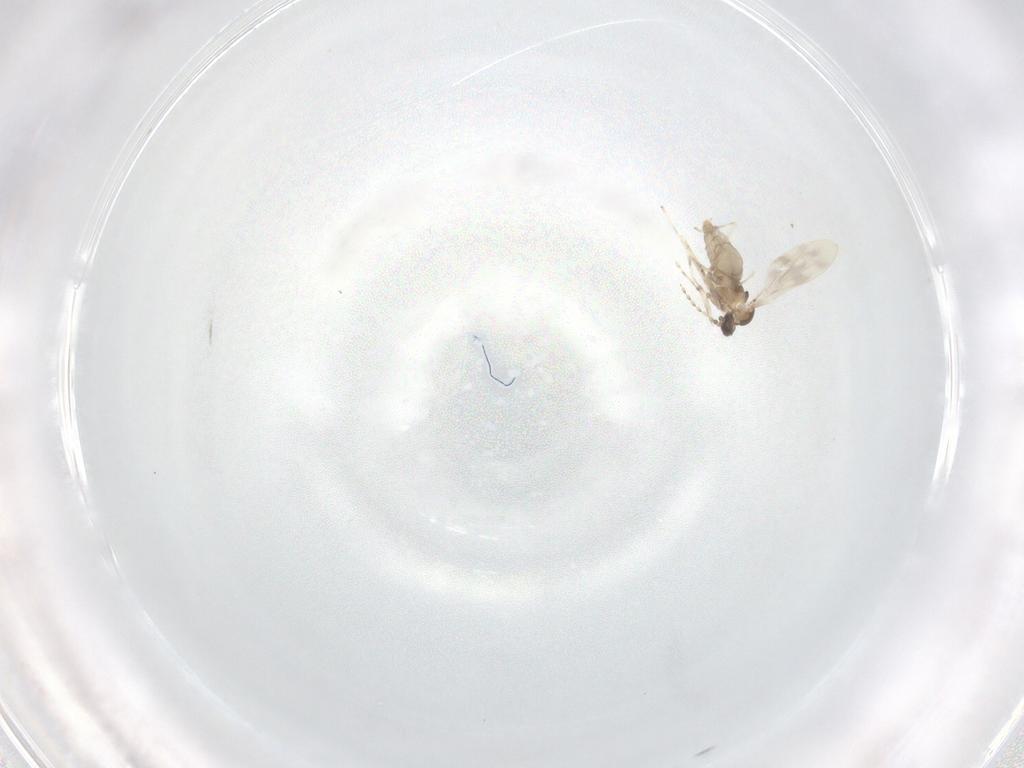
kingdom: Animalia
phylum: Arthropoda
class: Insecta
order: Diptera
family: Cecidomyiidae
